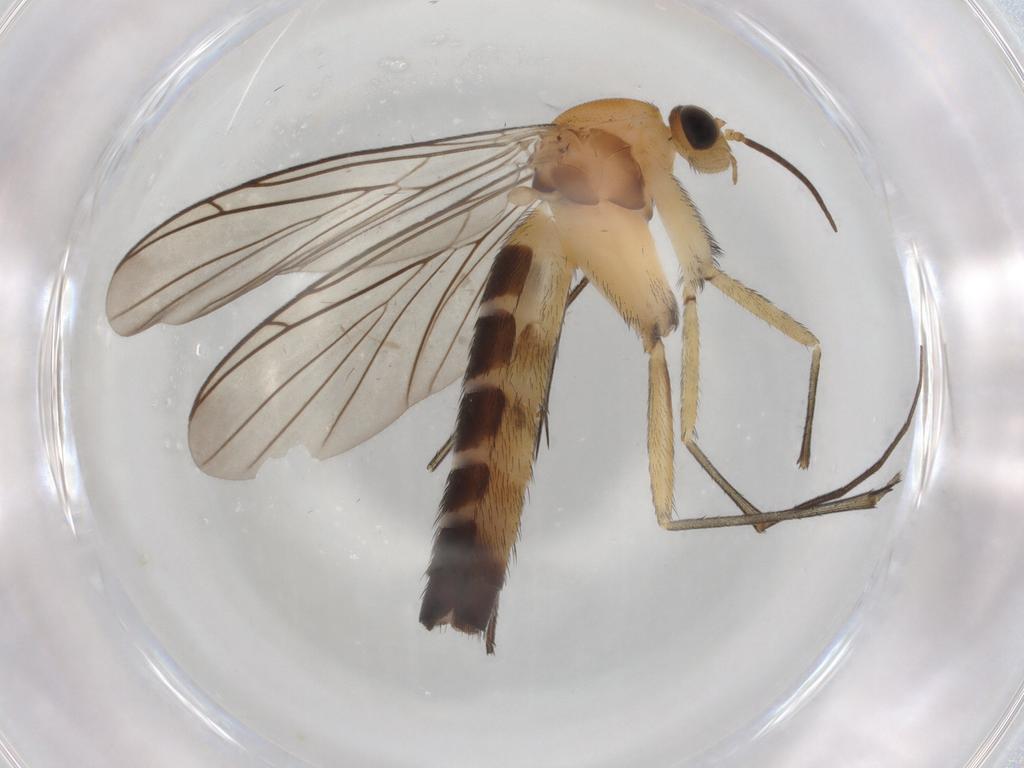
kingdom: Animalia
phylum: Arthropoda
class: Insecta
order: Diptera
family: Keroplatidae
